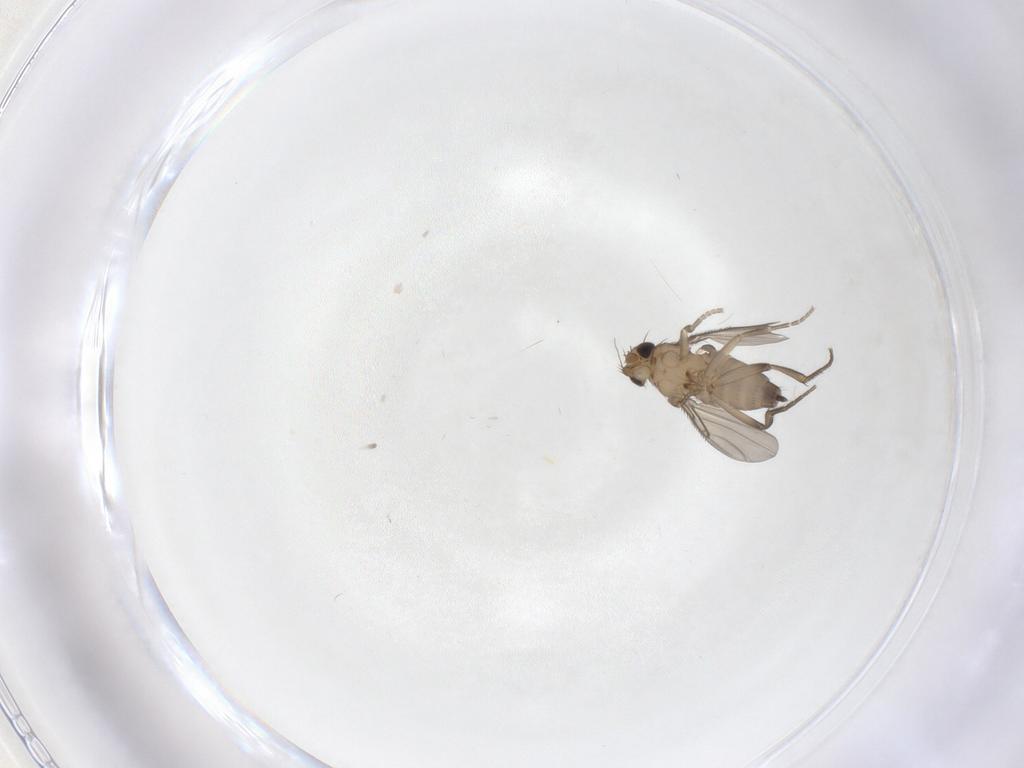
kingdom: Animalia
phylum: Arthropoda
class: Insecta
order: Diptera
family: Phoridae
